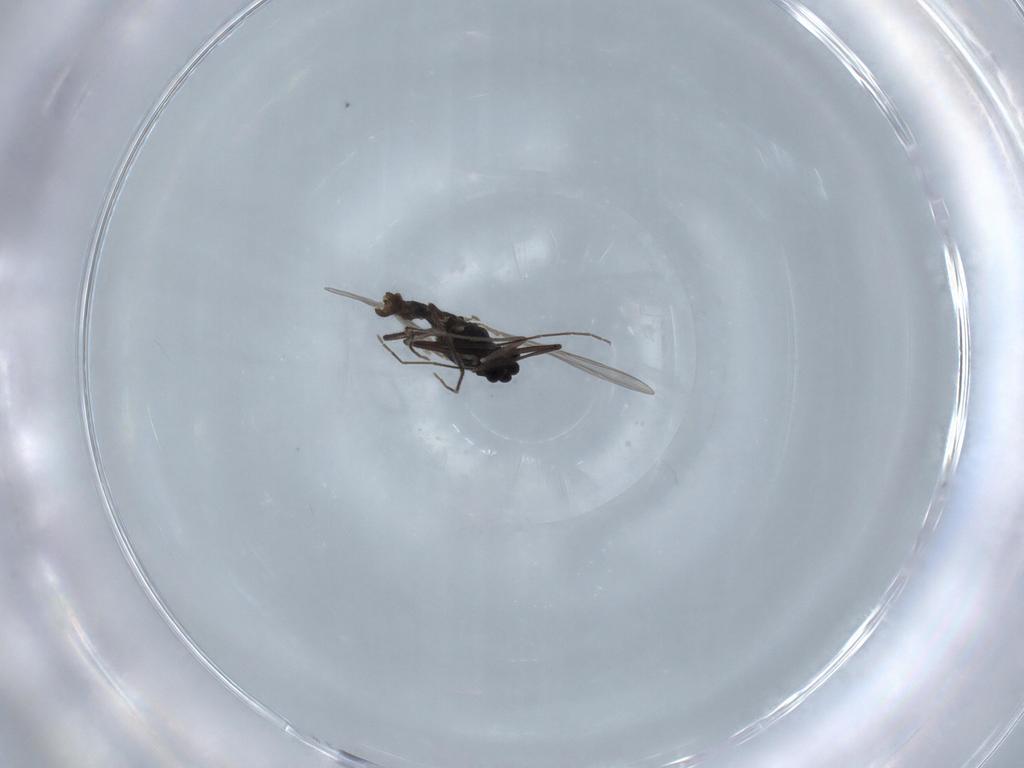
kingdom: Animalia
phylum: Arthropoda
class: Insecta
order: Diptera
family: Chironomidae
